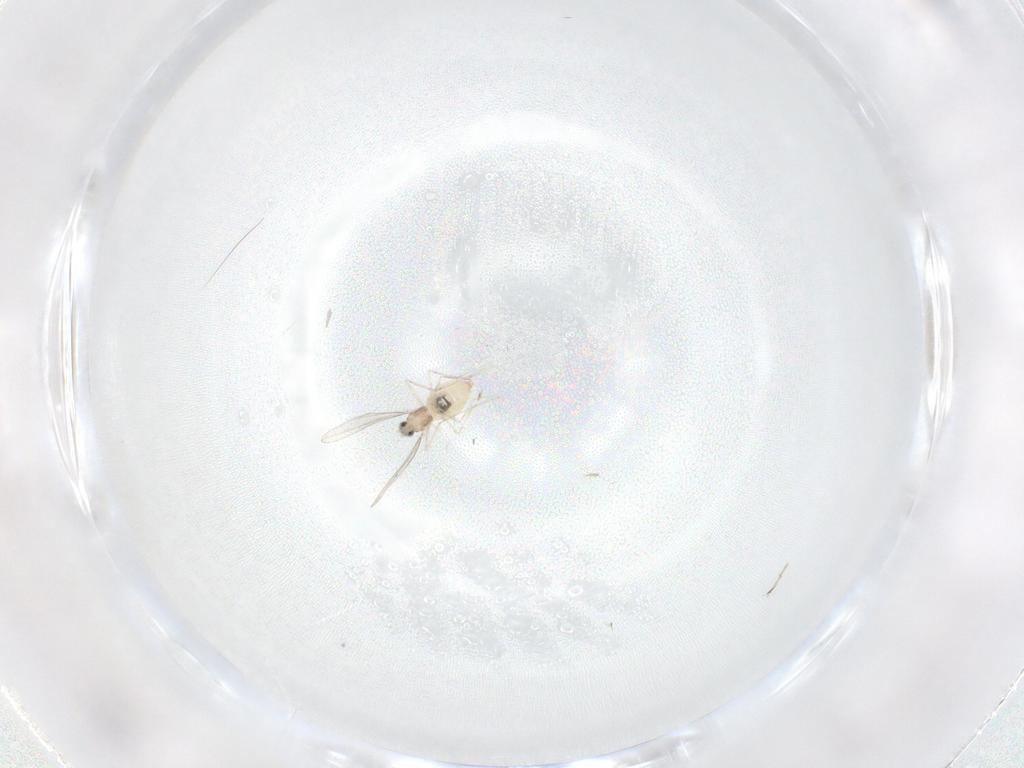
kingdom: Animalia
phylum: Arthropoda
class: Insecta
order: Diptera
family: Cecidomyiidae
